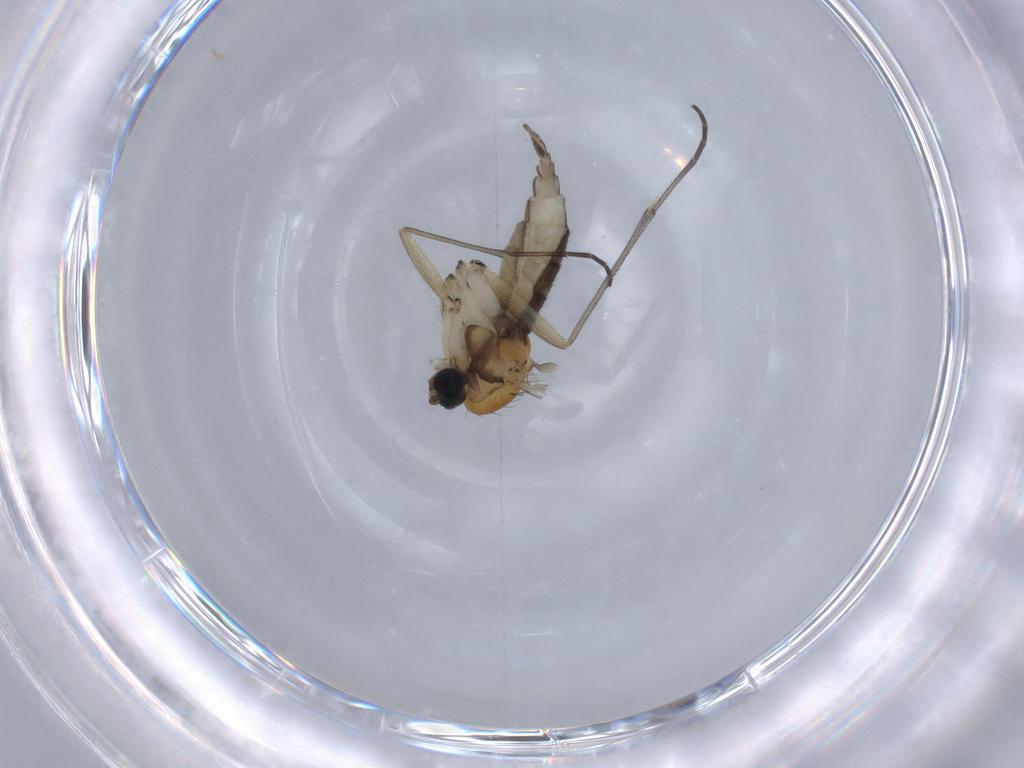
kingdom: Animalia
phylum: Arthropoda
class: Insecta
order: Diptera
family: Sciaridae
